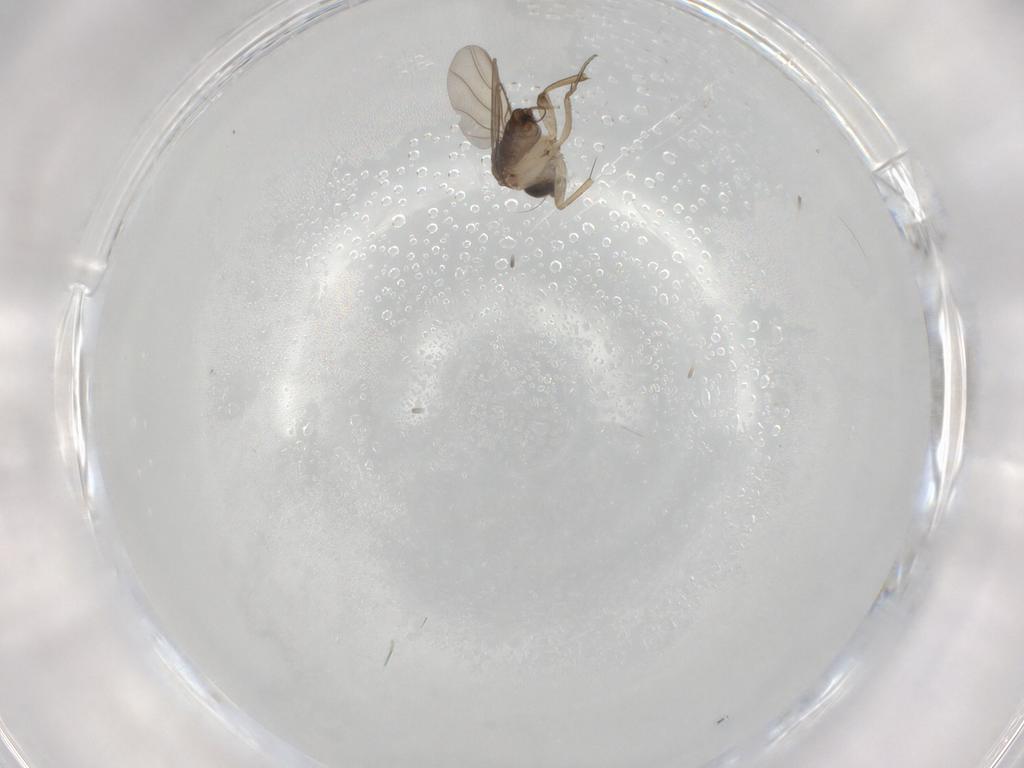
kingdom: Animalia
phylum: Arthropoda
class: Insecta
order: Diptera
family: Phoridae
